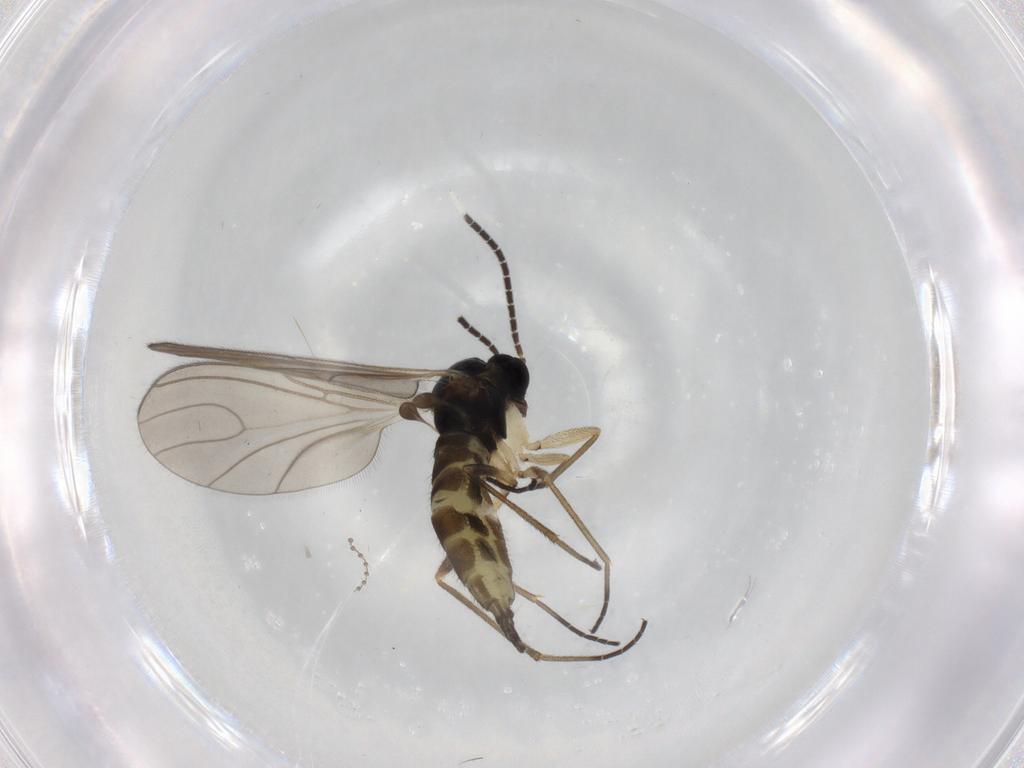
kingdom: Animalia
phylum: Arthropoda
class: Insecta
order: Diptera
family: Sciaridae
